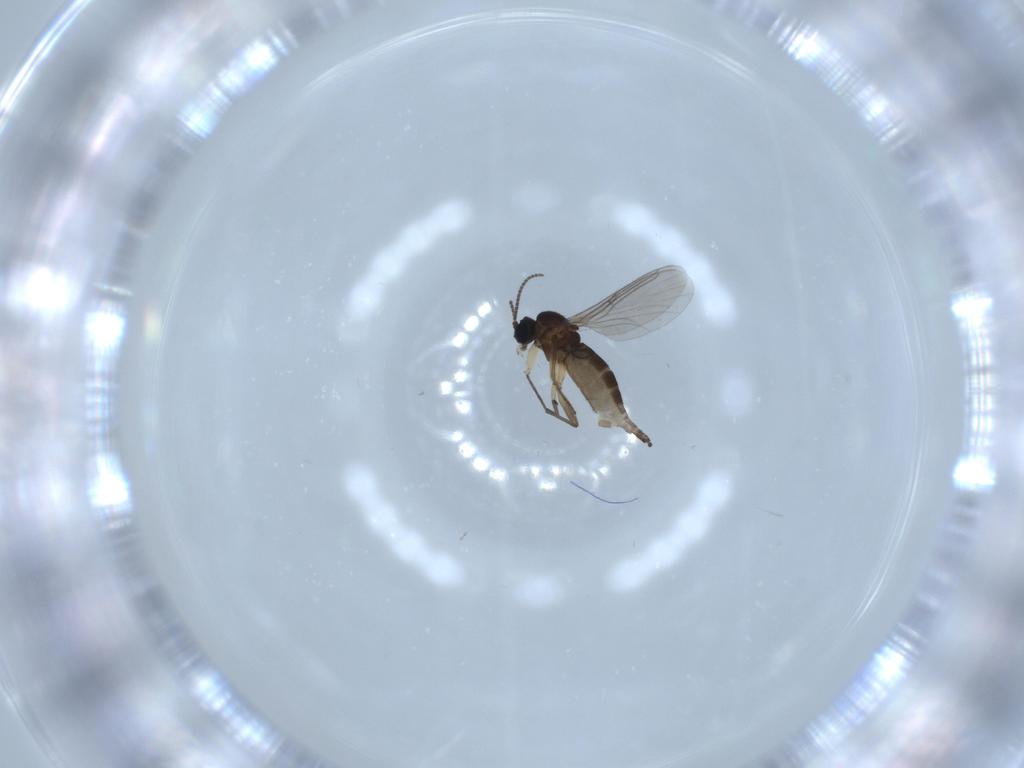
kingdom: Animalia
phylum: Arthropoda
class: Insecta
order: Diptera
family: Sciaridae
